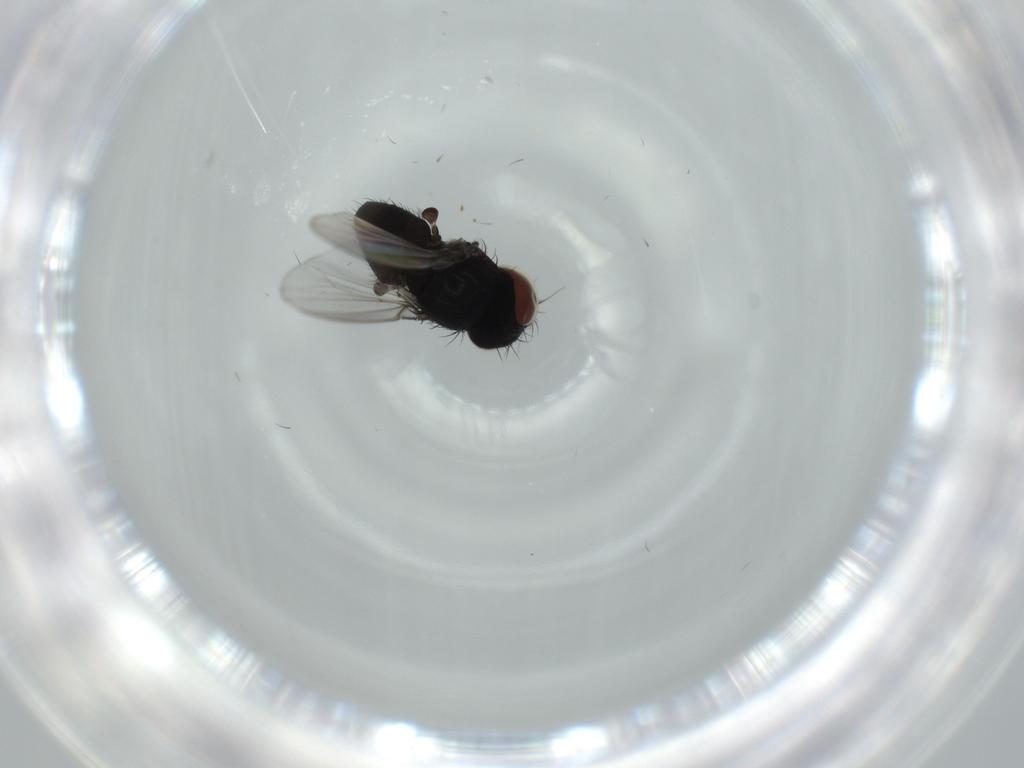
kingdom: Animalia
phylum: Arthropoda
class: Insecta
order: Diptera
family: Milichiidae
